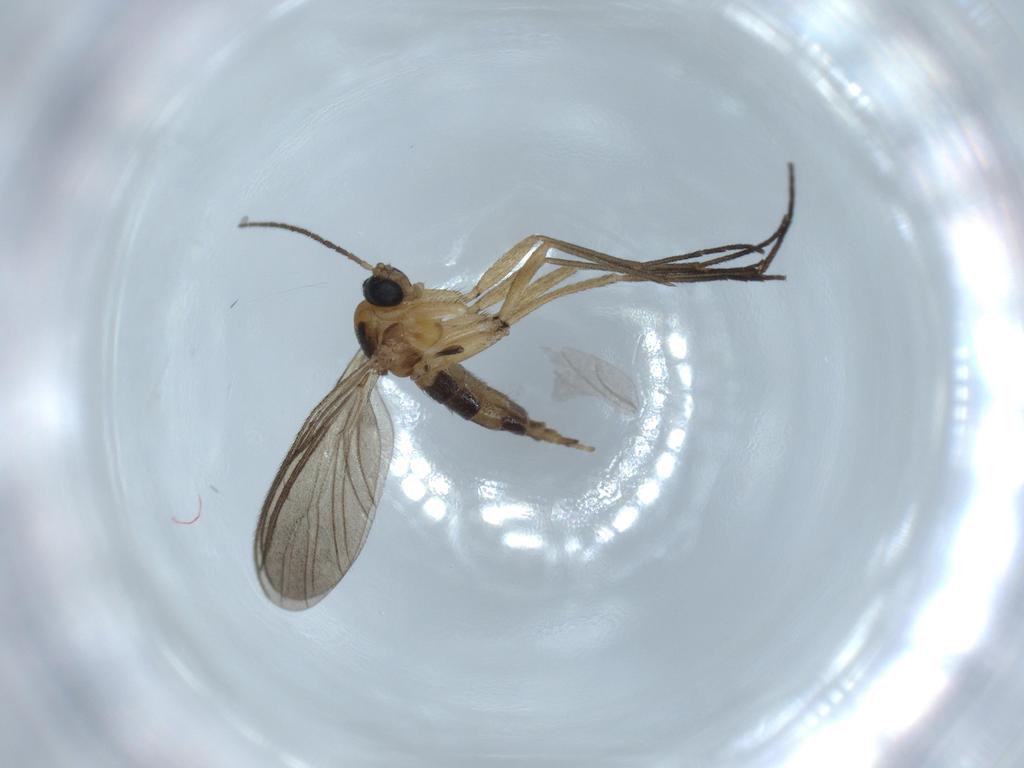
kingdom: Animalia
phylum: Arthropoda
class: Insecta
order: Diptera
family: Sciaridae
